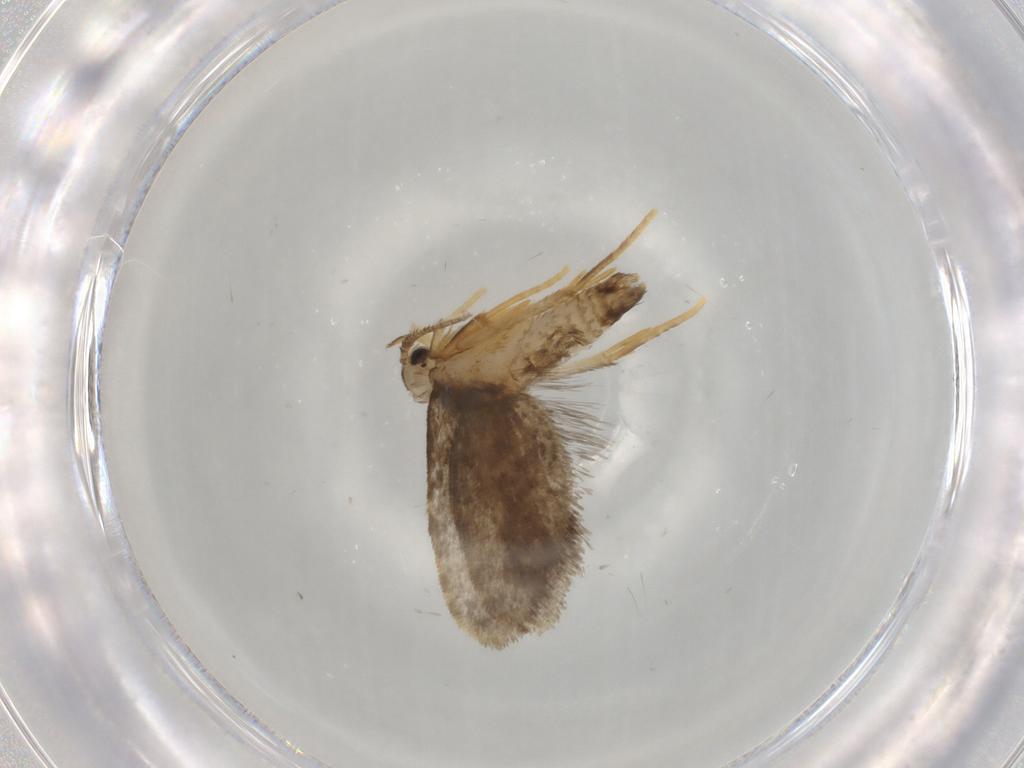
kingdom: Animalia
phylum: Arthropoda
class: Insecta
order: Lepidoptera
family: Psychidae
